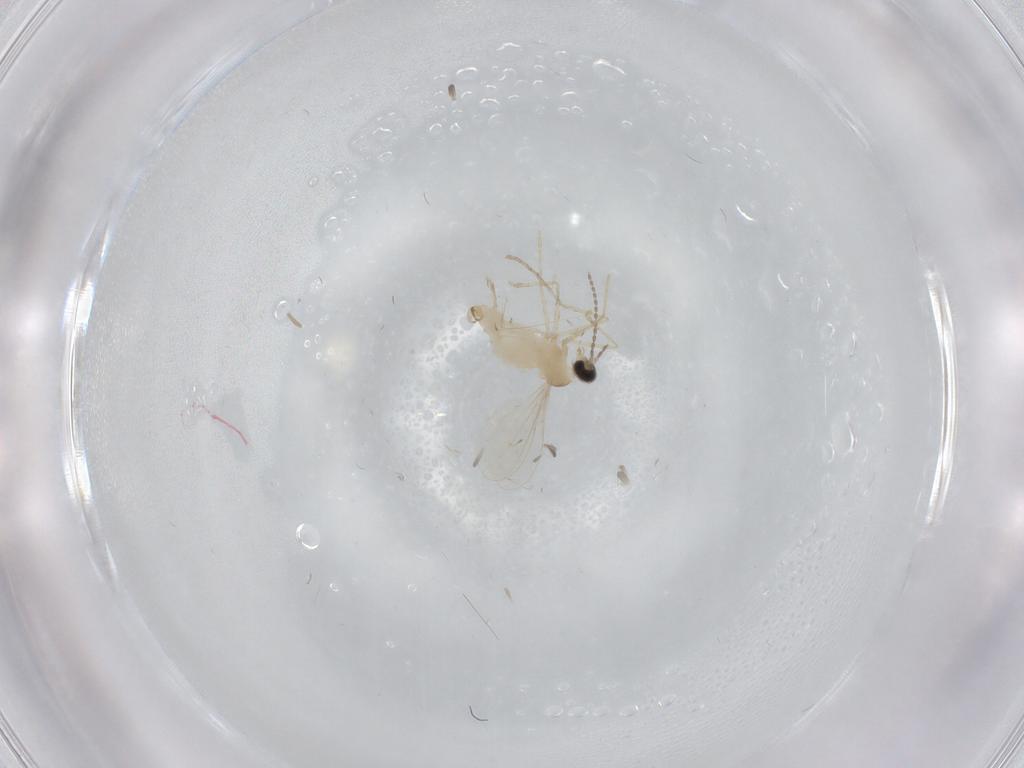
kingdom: Animalia
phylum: Arthropoda
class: Insecta
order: Diptera
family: Cecidomyiidae
